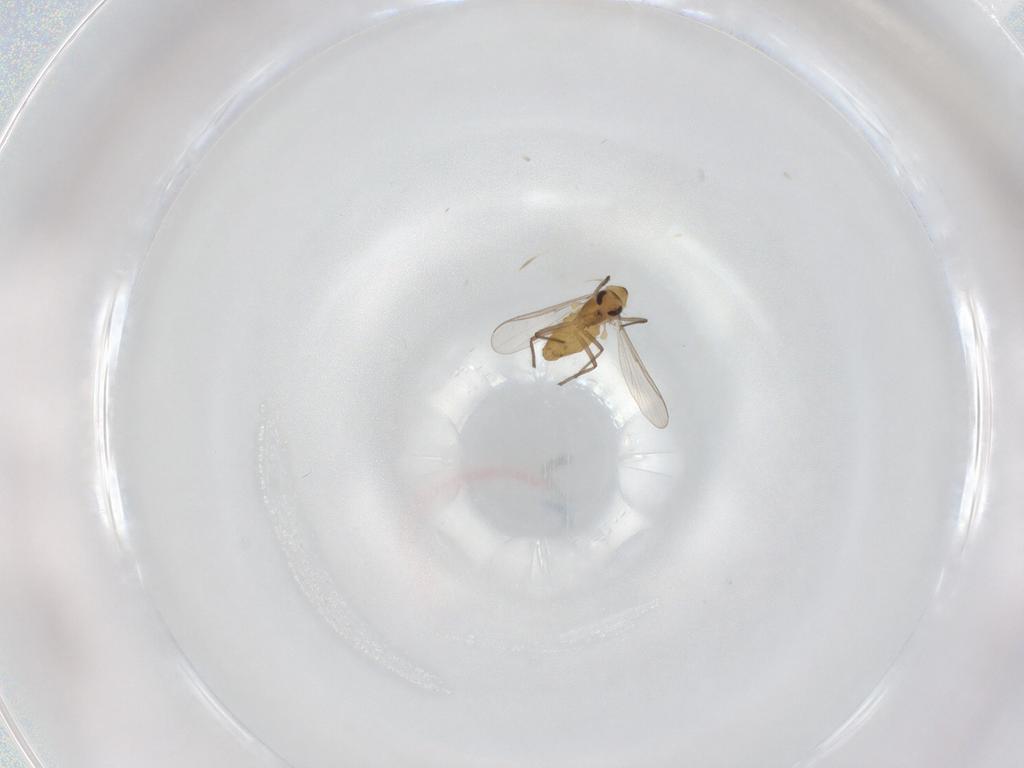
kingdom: Animalia
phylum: Arthropoda
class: Insecta
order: Diptera
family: Chironomidae
